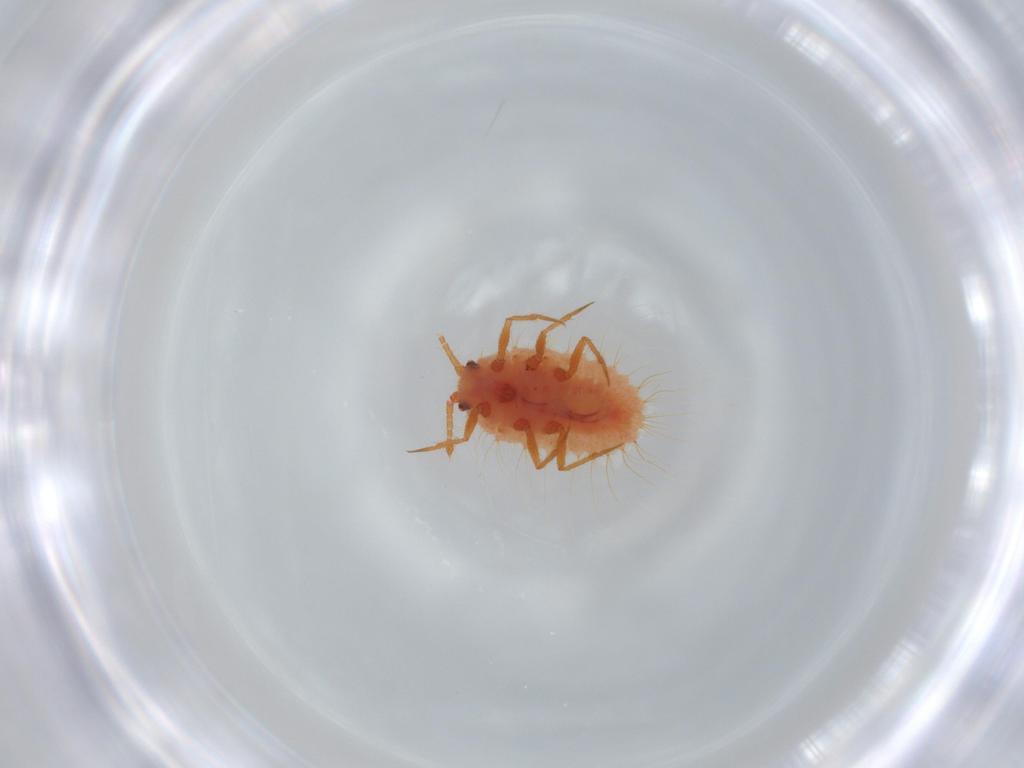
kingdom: Animalia
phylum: Arthropoda
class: Insecta
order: Hemiptera
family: Coccoidea_incertae_sedis
